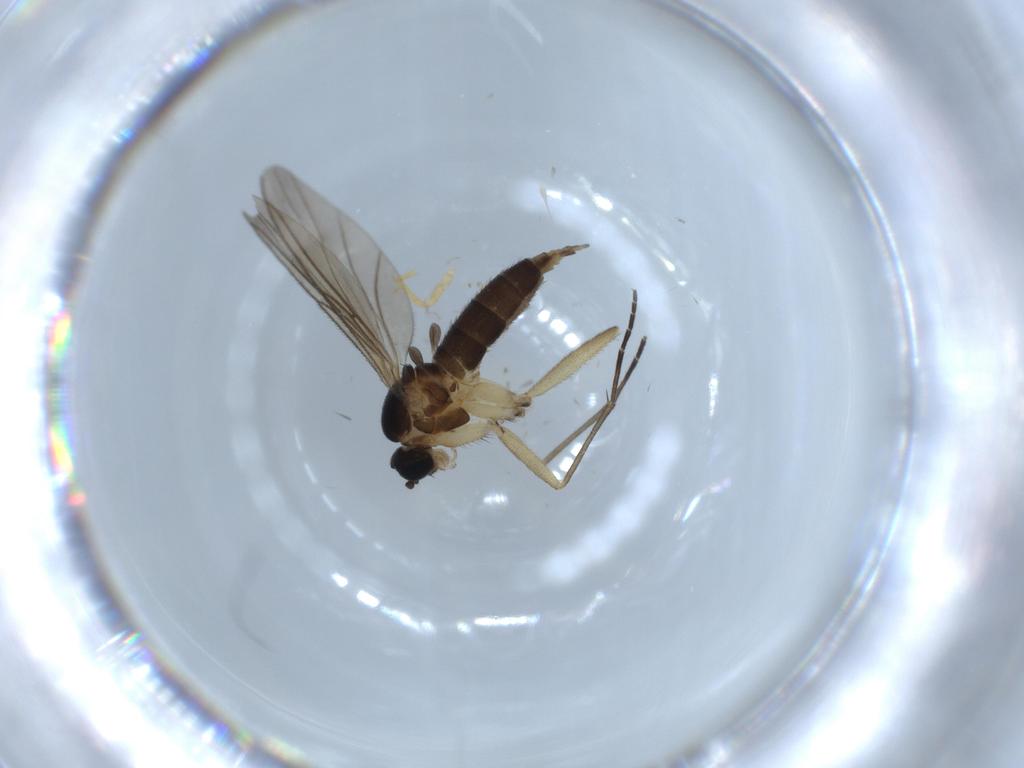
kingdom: Animalia
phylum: Arthropoda
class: Insecta
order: Diptera
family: Sciaridae
